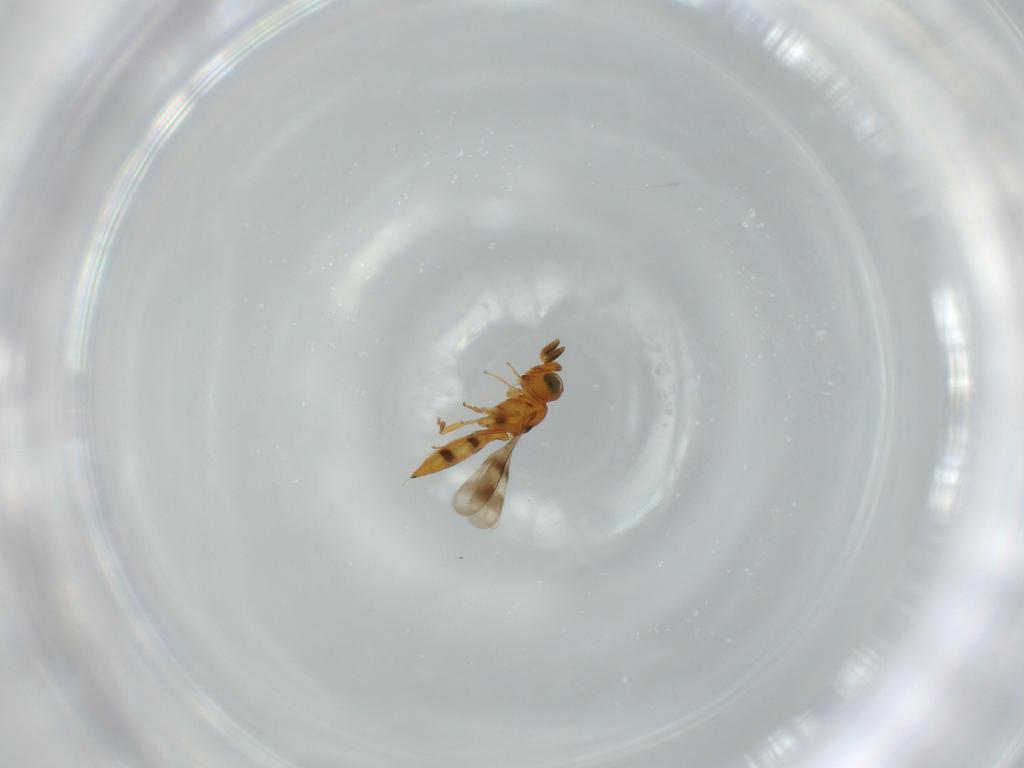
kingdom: Animalia
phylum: Arthropoda
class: Insecta
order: Hymenoptera
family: Scelionidae
